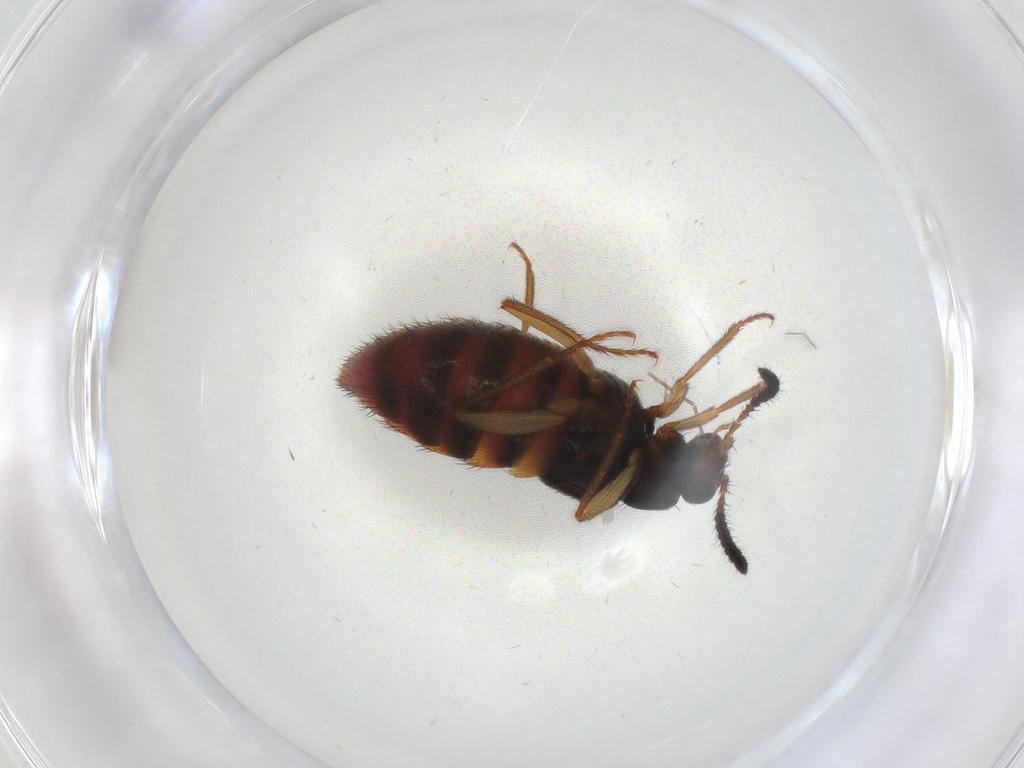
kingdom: Animalia
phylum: Arthropoda
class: Insecta
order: Coleoptera
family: Staphylinidae
